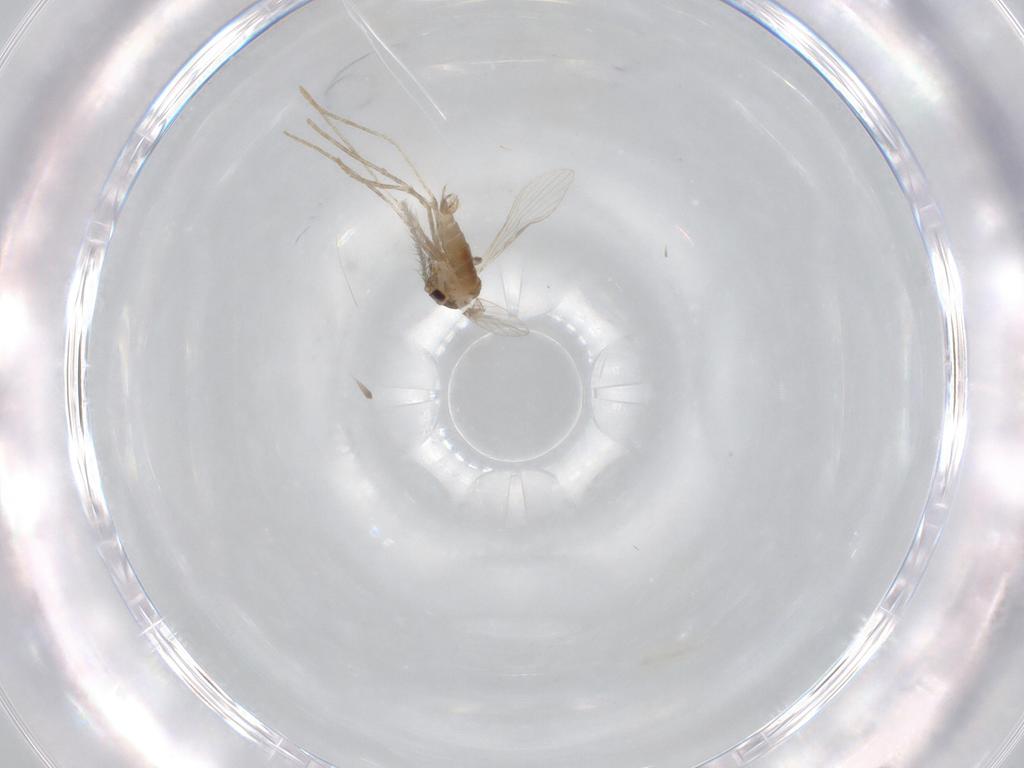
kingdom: Animalia
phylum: Arthropoda
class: Insecta
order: Diptera
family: Psychodidae
